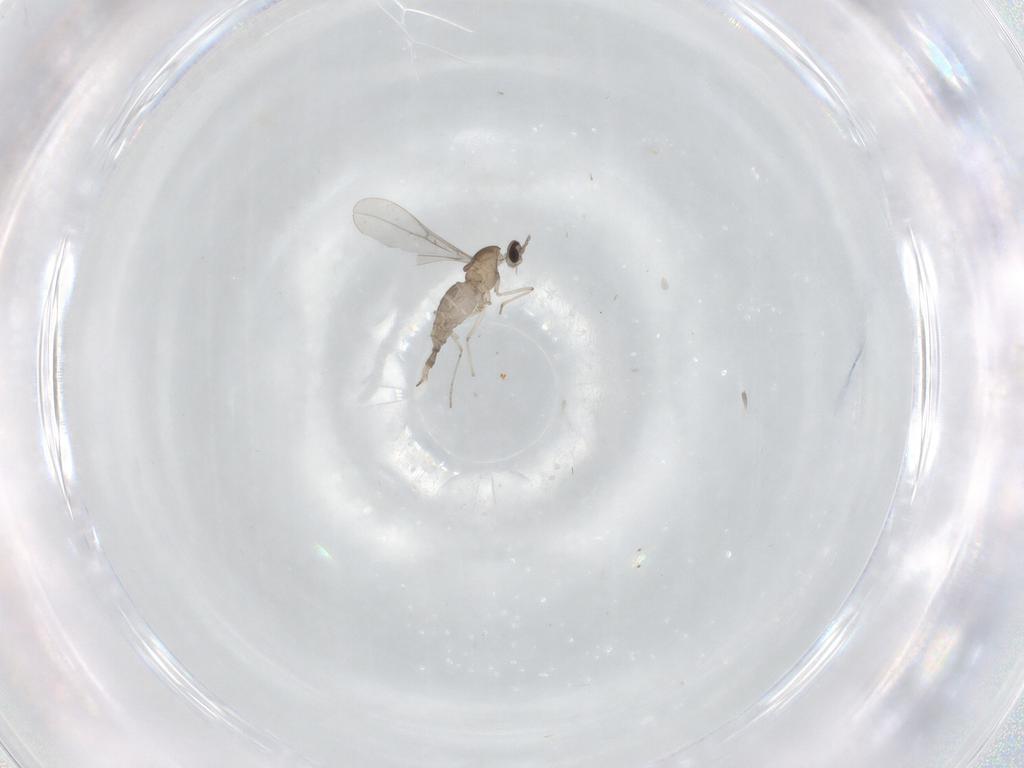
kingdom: Animalia
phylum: Arthropoda
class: Insecta
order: Diptera
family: Cecidomyiidae
